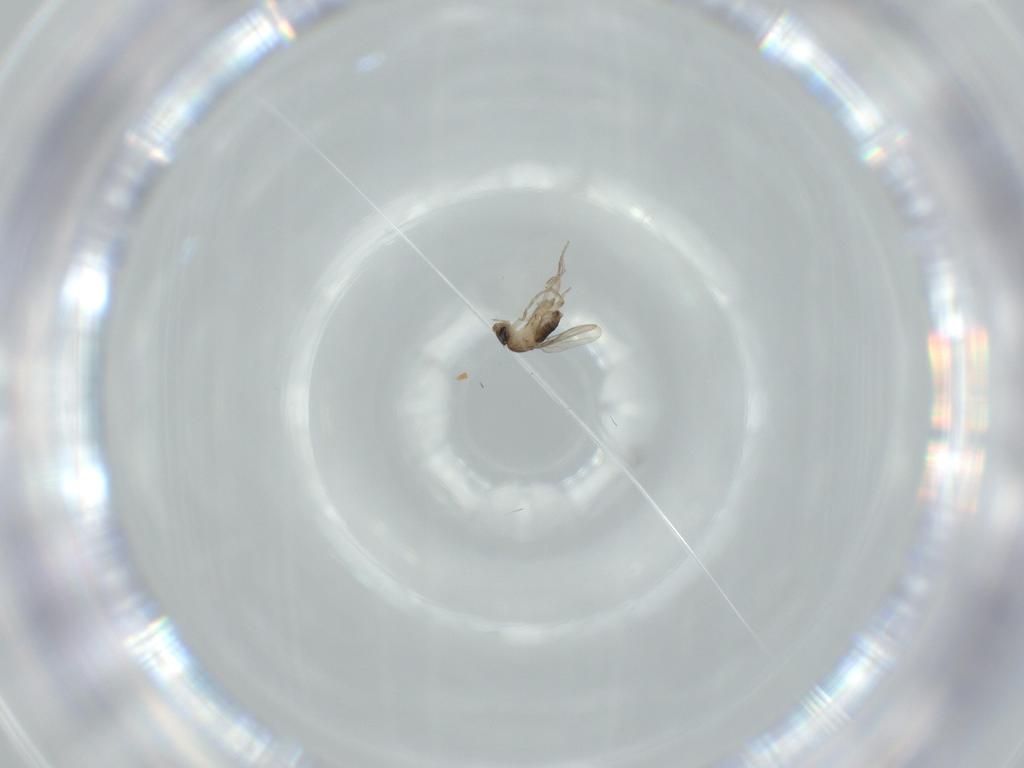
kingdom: Animalia
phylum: Arthropoda
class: Insecta
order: Diptera
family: Phoridae
